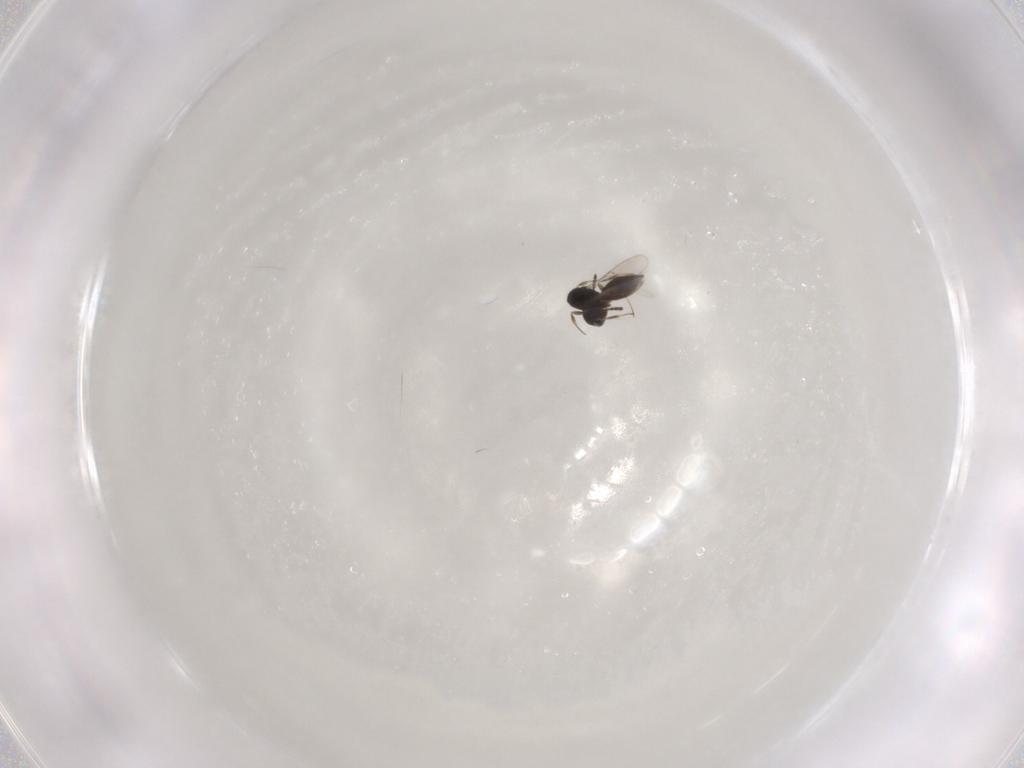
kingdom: Animalia
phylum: Arthropoda
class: Insecta
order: Hymenoptera
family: Scelionidae
